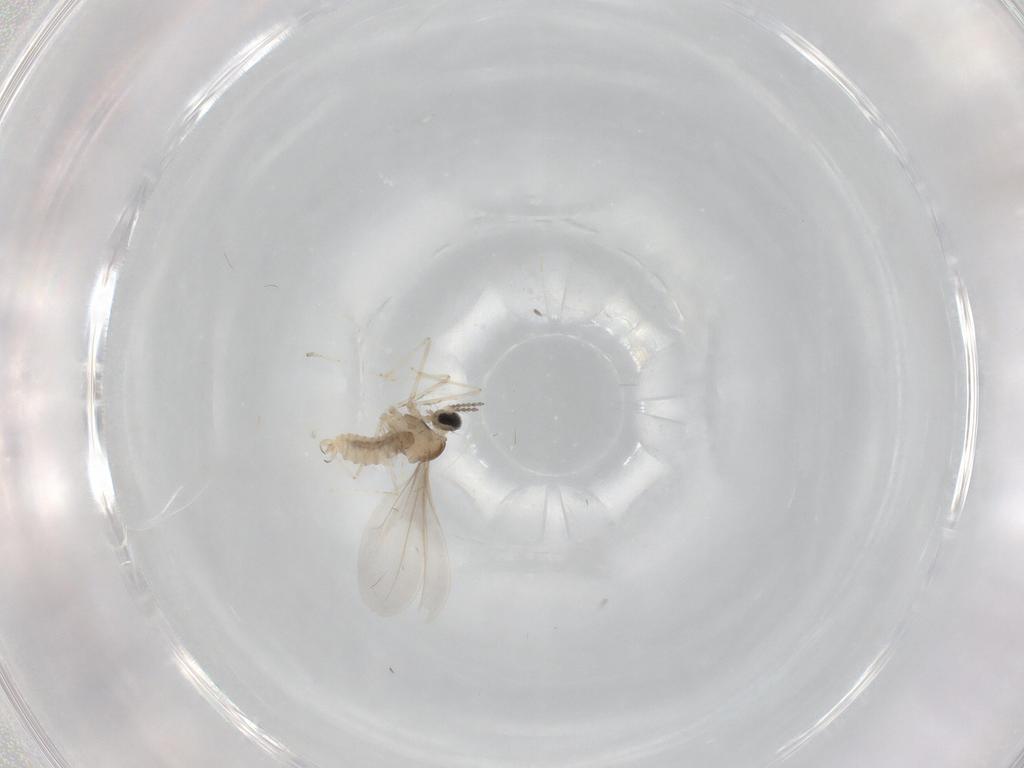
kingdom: Animalia
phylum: Arthropoda
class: Insecta
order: Diptera
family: Cecidomyiidae
